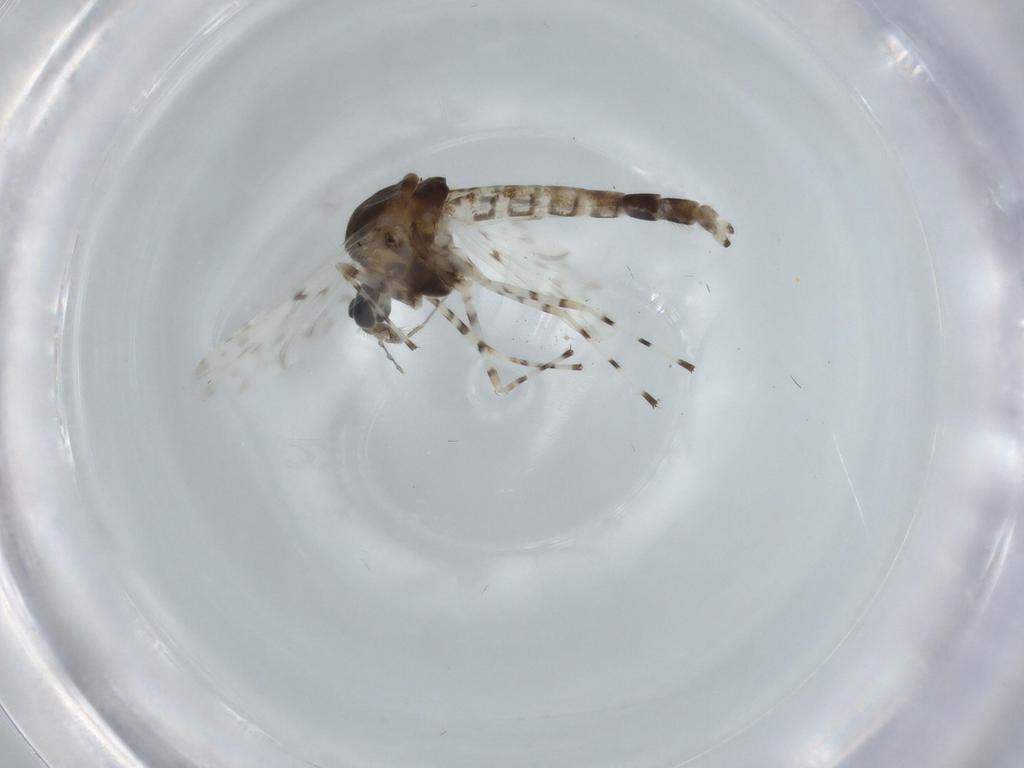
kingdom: Animalia
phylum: Arthropoda
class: Insecta
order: Diptera
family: Chironomidae
